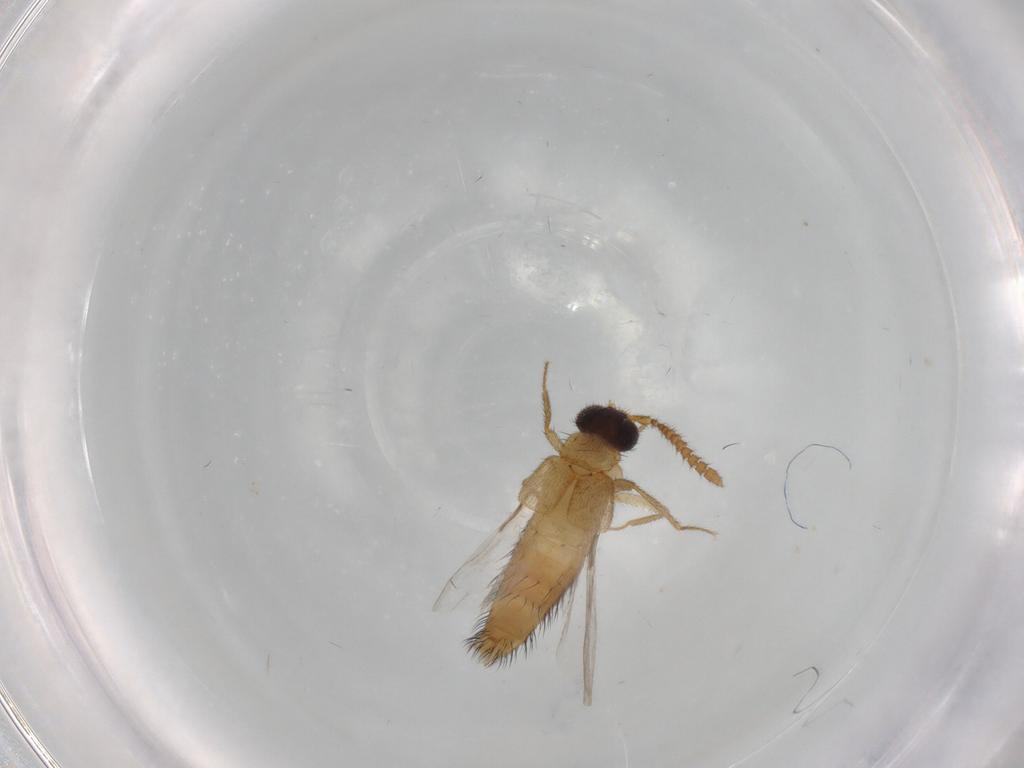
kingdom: Animalia
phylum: Arthropoda
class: Insecta
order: Coleoptera
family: Staphylinidae
